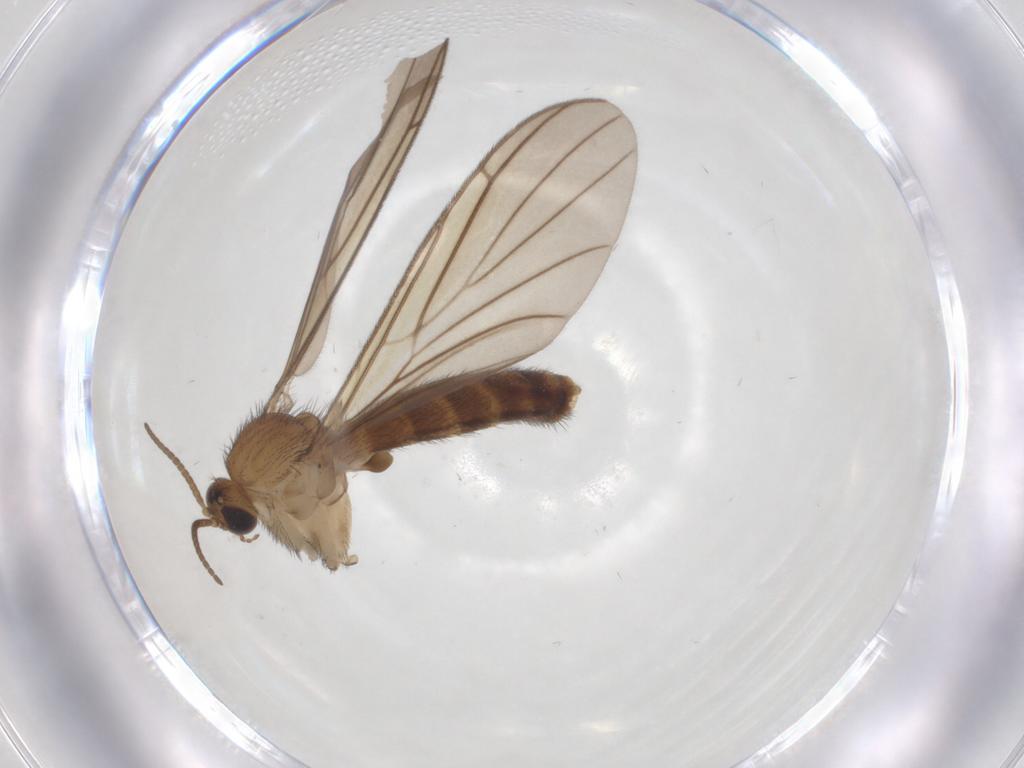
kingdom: Animalia
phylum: Arthropoda
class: Insecta
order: Diptera
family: Keroplatidae
